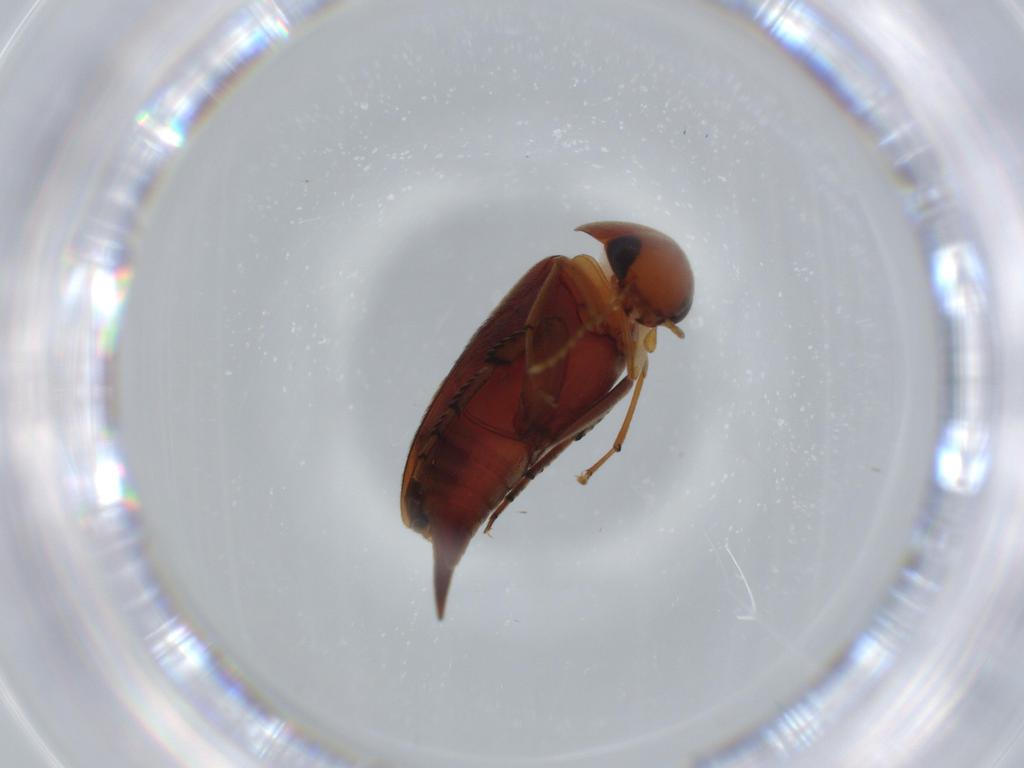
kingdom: Animalia
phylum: Arthropoda
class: Insecta
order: Coleoptera
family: Anthribidae
